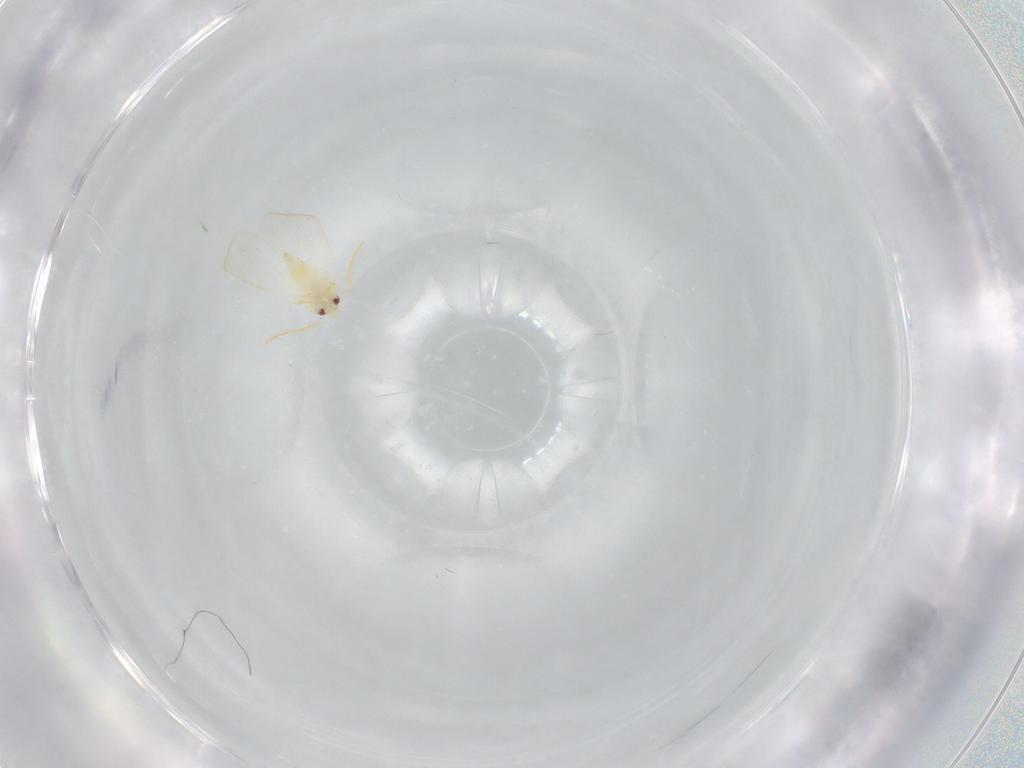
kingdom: Animalia
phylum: Arthropoda
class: Insecta
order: Hemiptera
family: Aleyrodidae
